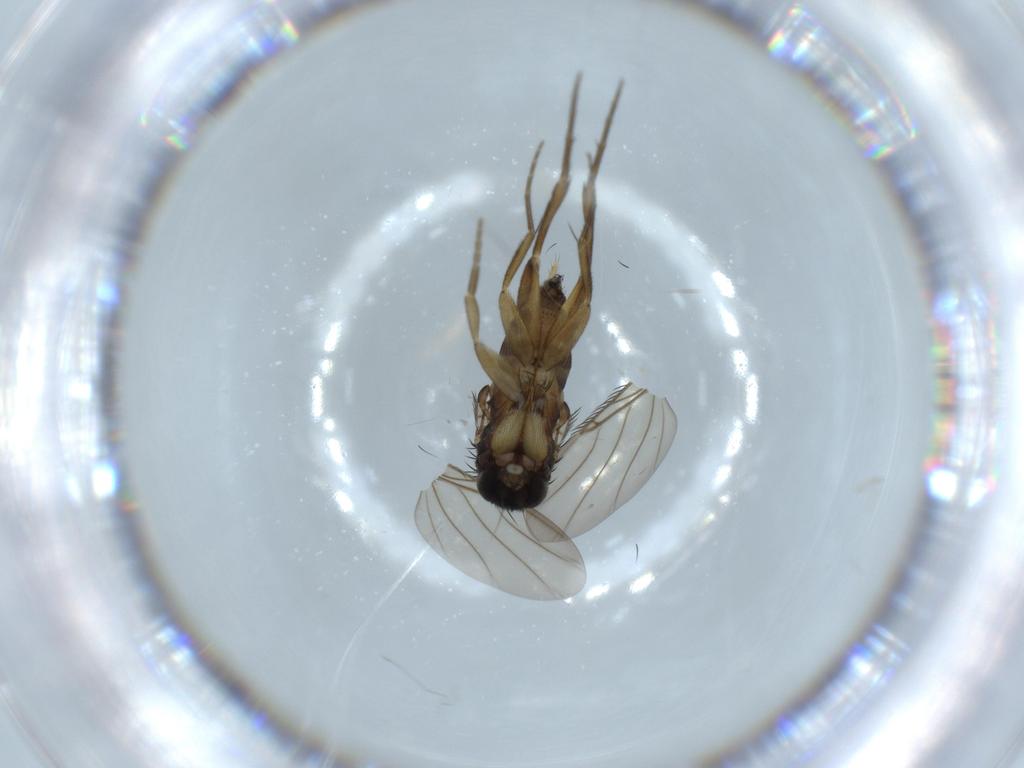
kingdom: Animalia
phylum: Arthropoda
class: Insecta
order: Diptera
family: Phoridae
